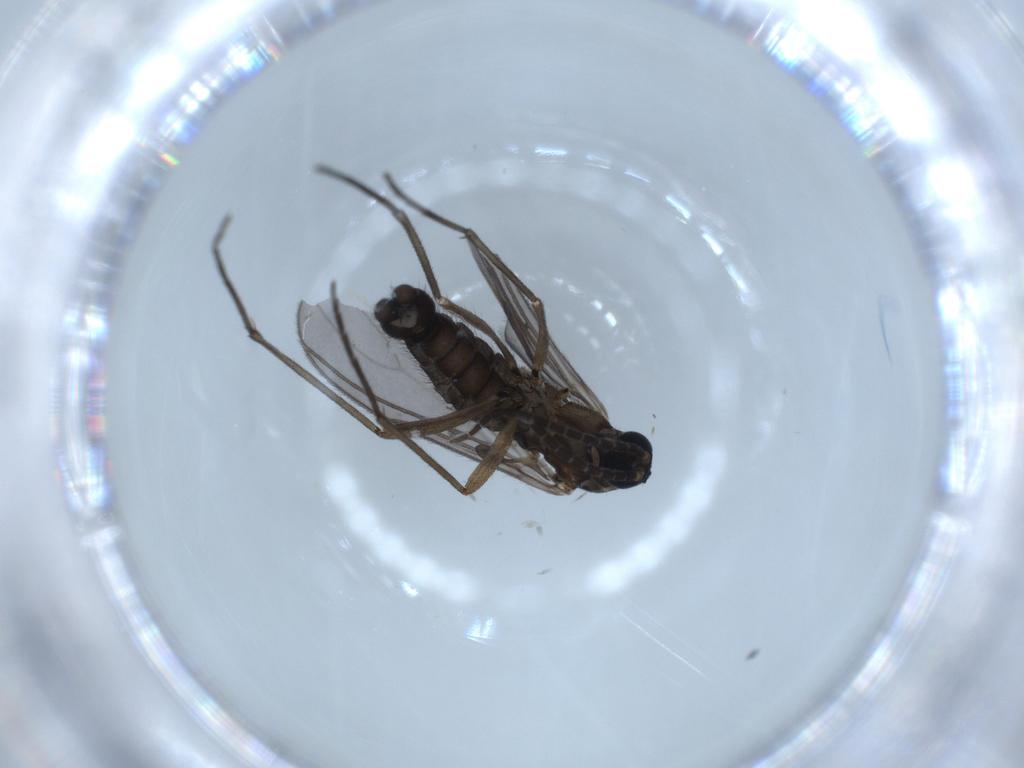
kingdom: Animalia
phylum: Arthropoda
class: Insecta
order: Diptera
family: Sciaridae
